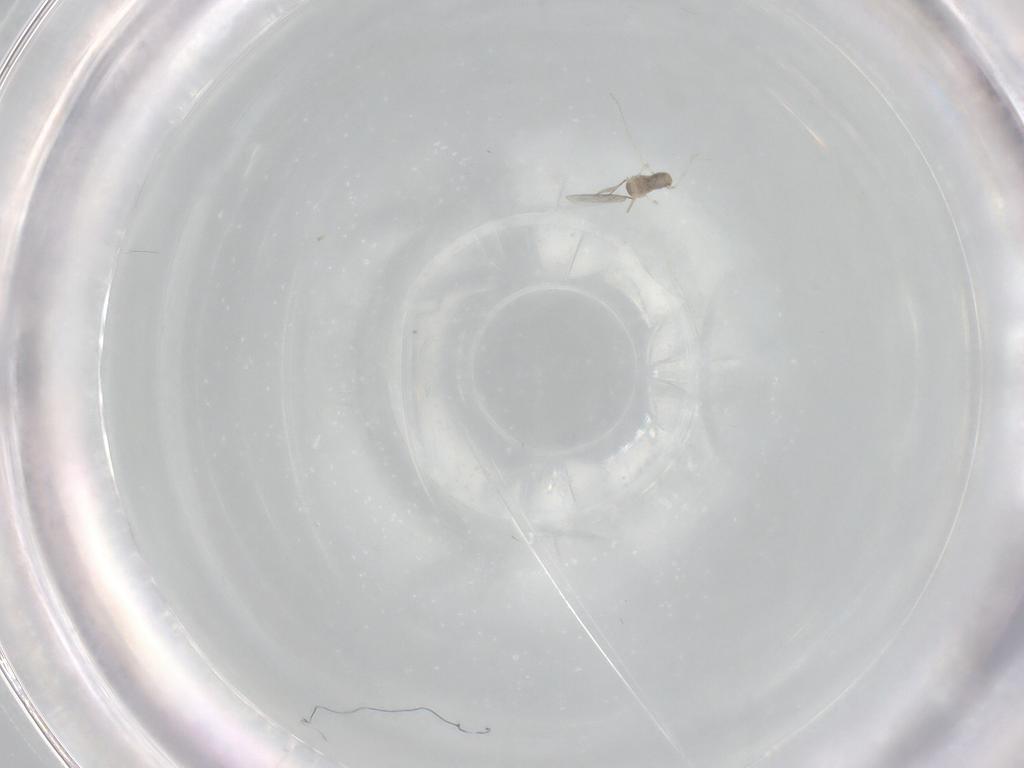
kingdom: Animalia
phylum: Arthropoda
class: Insecta
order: Diptera
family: Chironomidae
